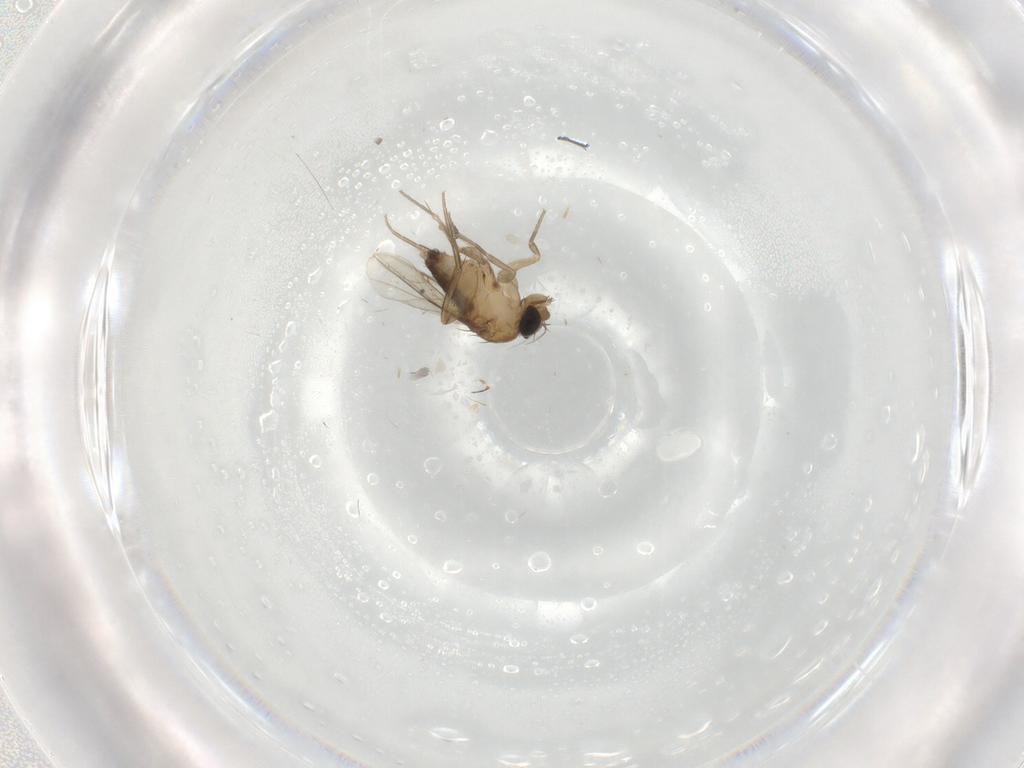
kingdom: Animalia
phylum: Arthropoda
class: Insecta
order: Diptera
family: Phoridae
